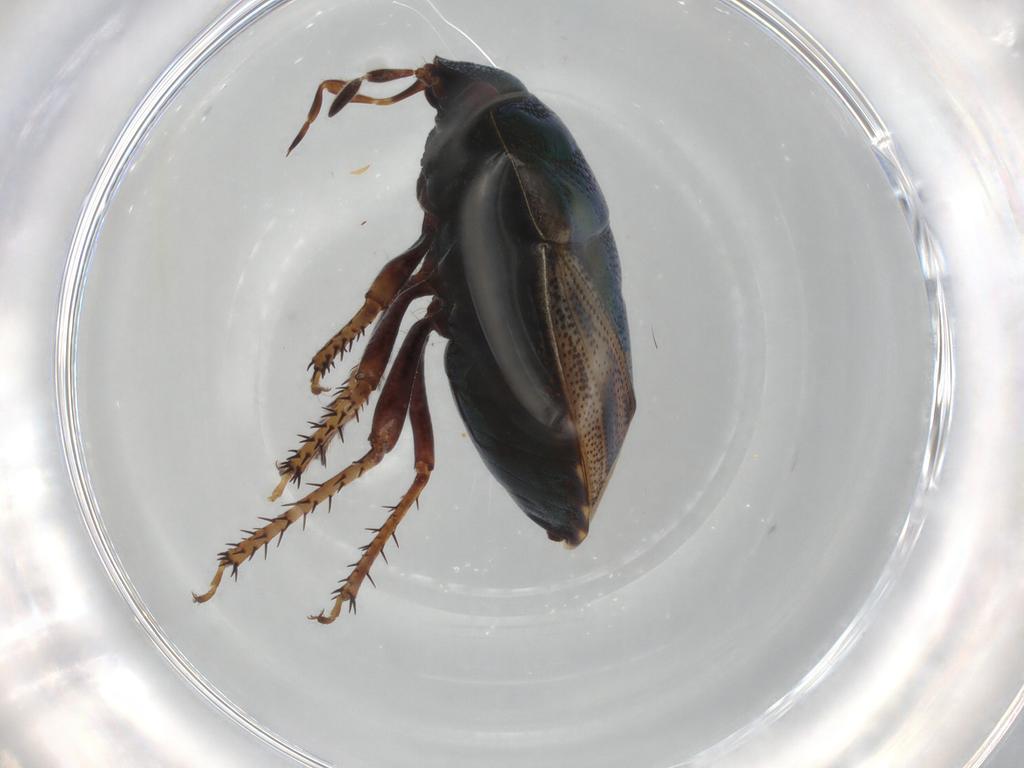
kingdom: Animalia
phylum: Arthropoda
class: Insecta
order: Hemiptera
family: Cydnidae
